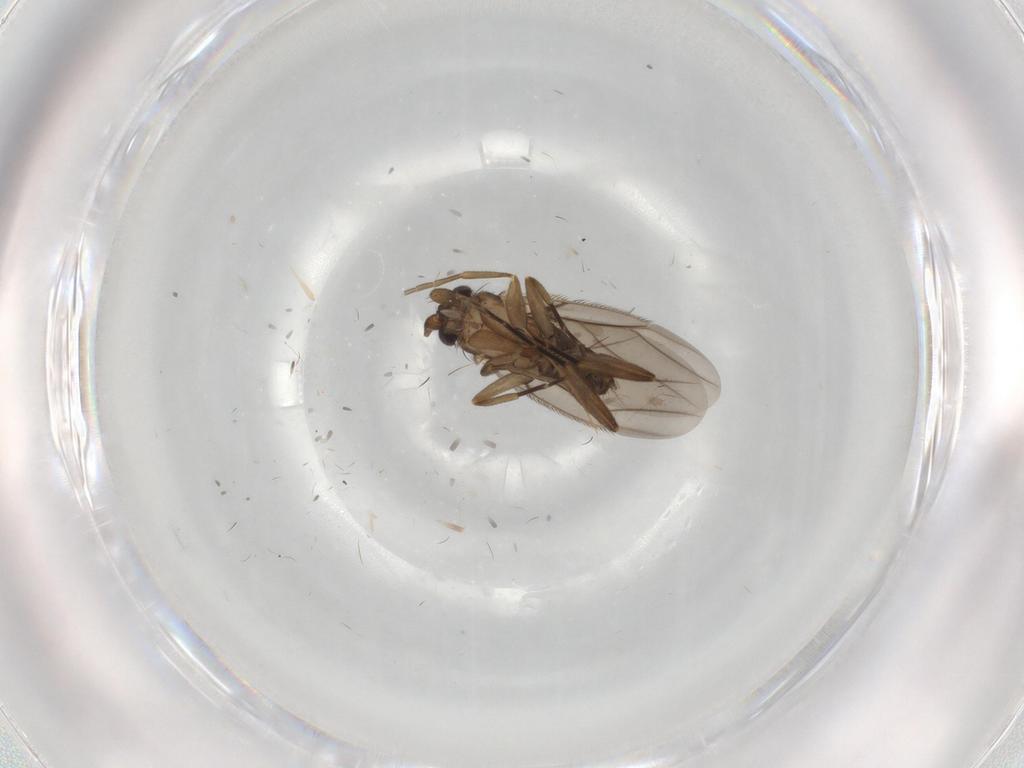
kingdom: Animalia
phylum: Arthropoda
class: Insecta
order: Diptera
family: Phoridae
